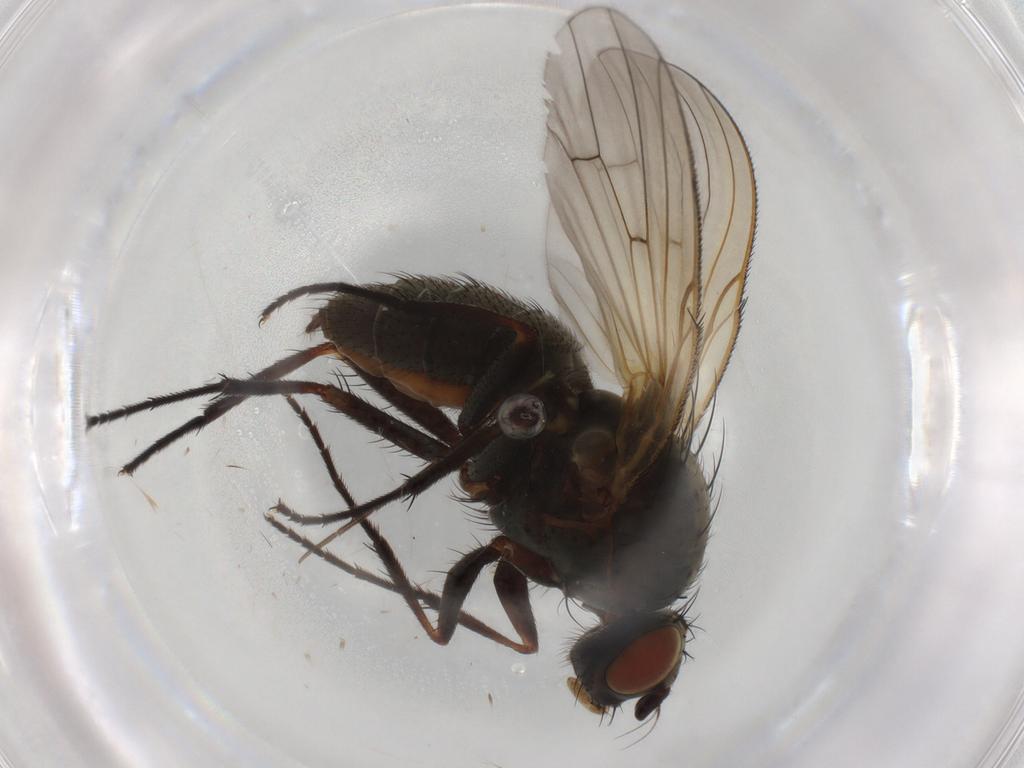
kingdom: Animalia
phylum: Arthropoda
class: Insecta
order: Diptera
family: Anthomyiidae
